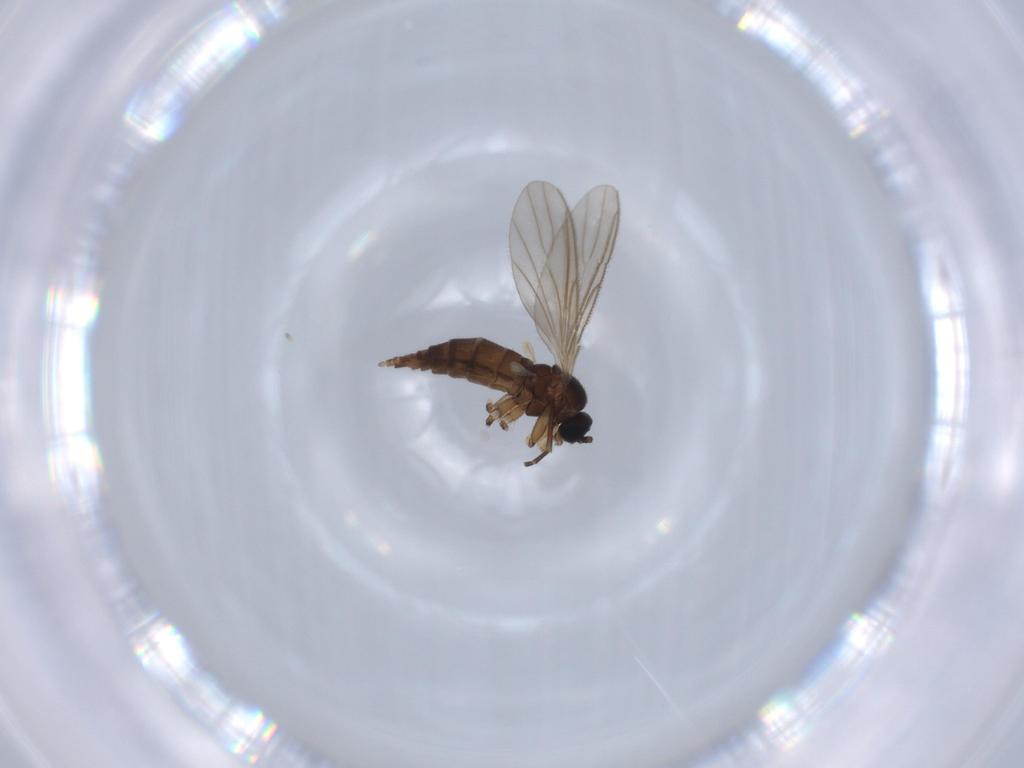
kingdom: Animalia
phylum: Arthropoda
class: Insecta
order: Diptera
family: Sciaridae
